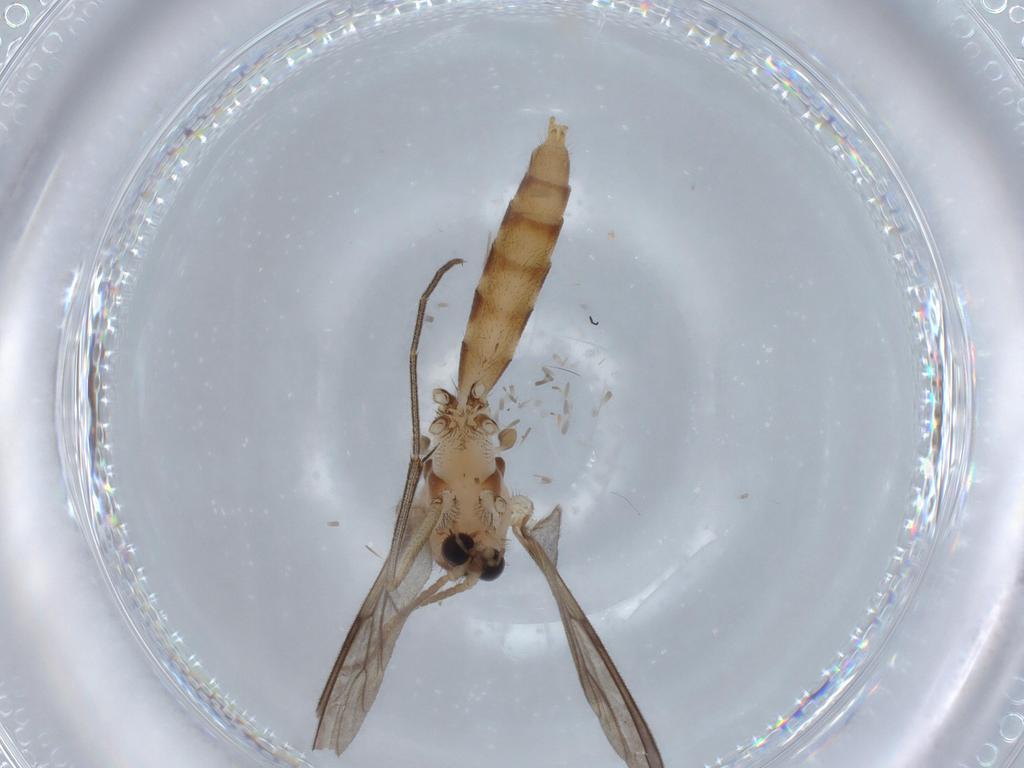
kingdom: Animalia
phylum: Arthropoda
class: Insecta
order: Diptera
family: Mycetophilidae
